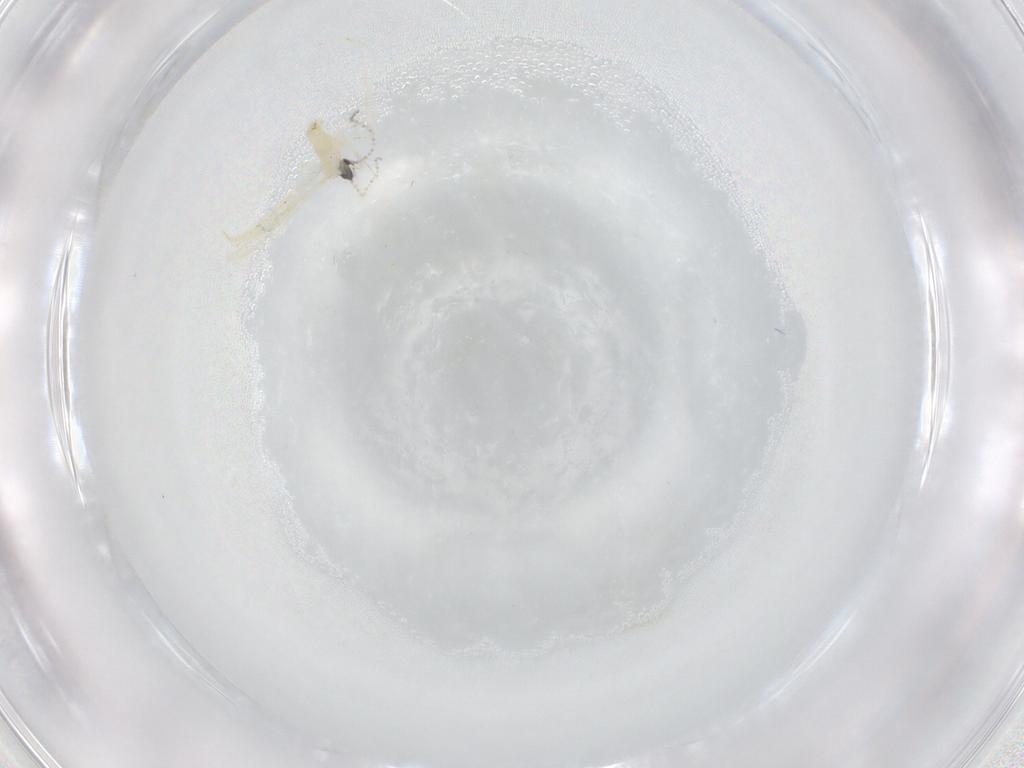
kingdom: Animalia
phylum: Arthropoda
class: Insecta
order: Diptera
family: Cecidomyiidae
